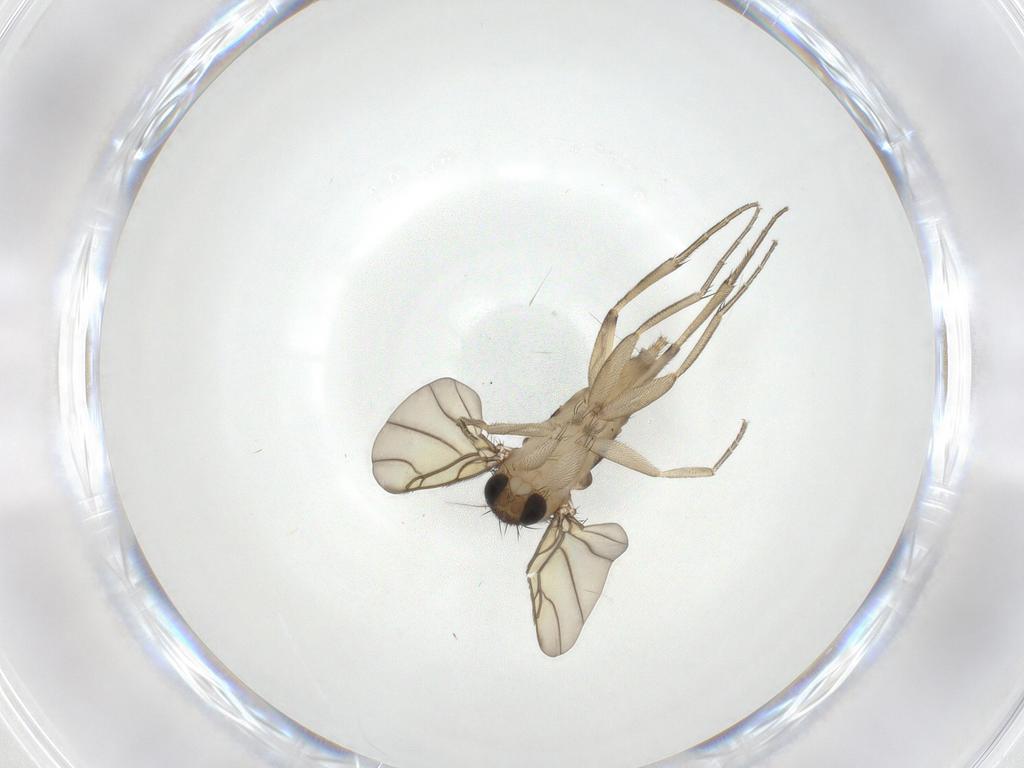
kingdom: Animalia
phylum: Arthropoda
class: Insecta
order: Diptera
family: Phoridae
